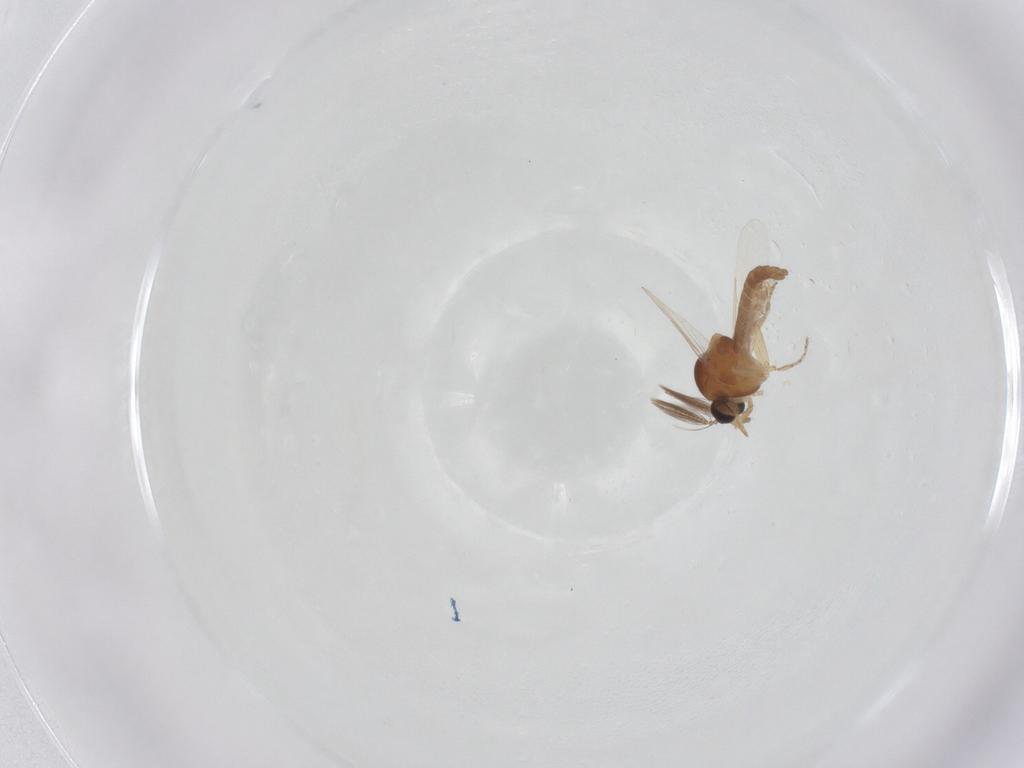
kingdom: Animalia
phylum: Arthropoda
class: Insecta
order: Diptera
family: Ceratopogonidae
